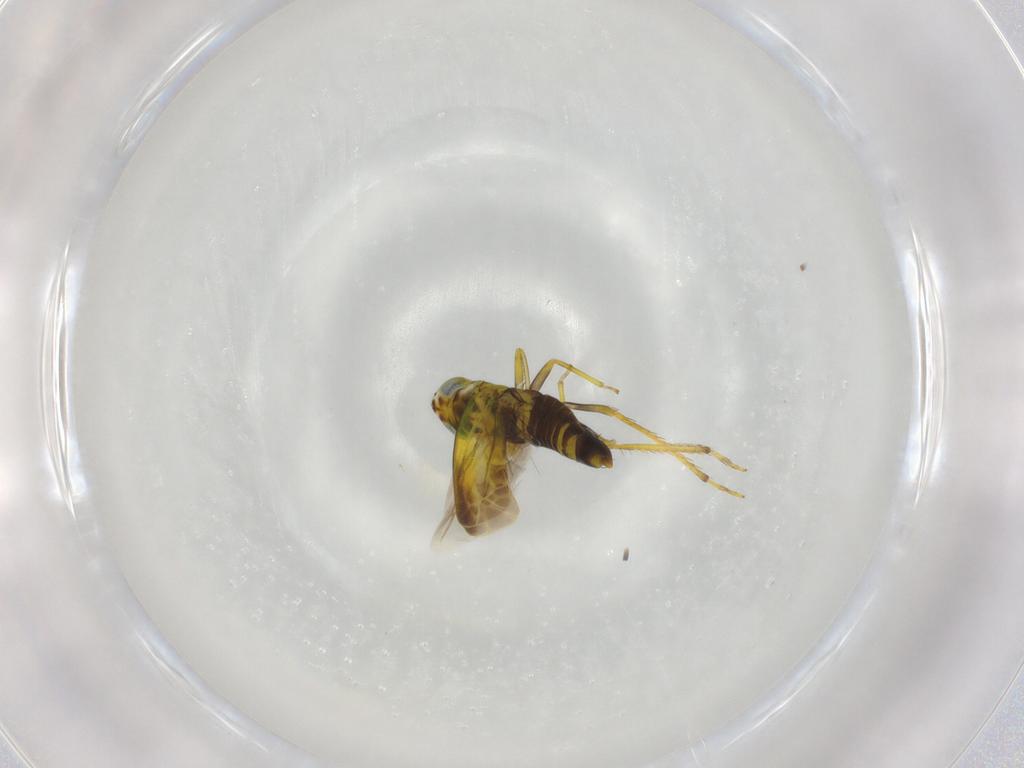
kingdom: Animalia
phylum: Arthropoda
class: Insecta
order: Hemiptera
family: Cicadellidae
